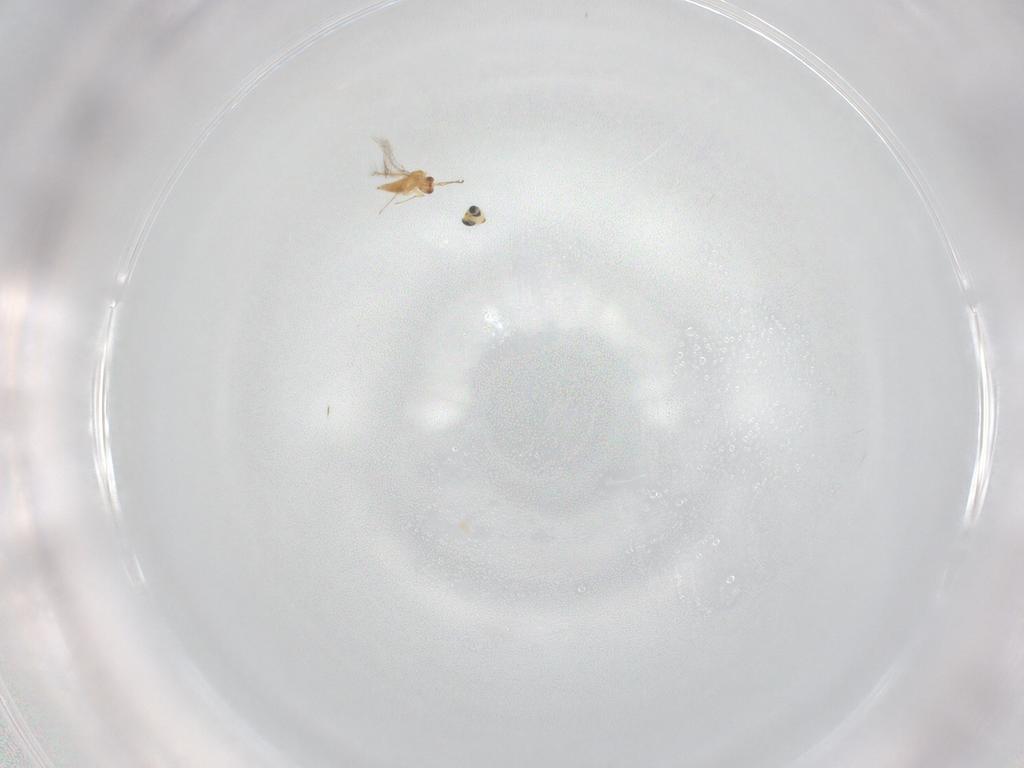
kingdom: Animalia
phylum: Arthropoda
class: Insecta
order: Hymenoptera
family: Trichogrammatidae
